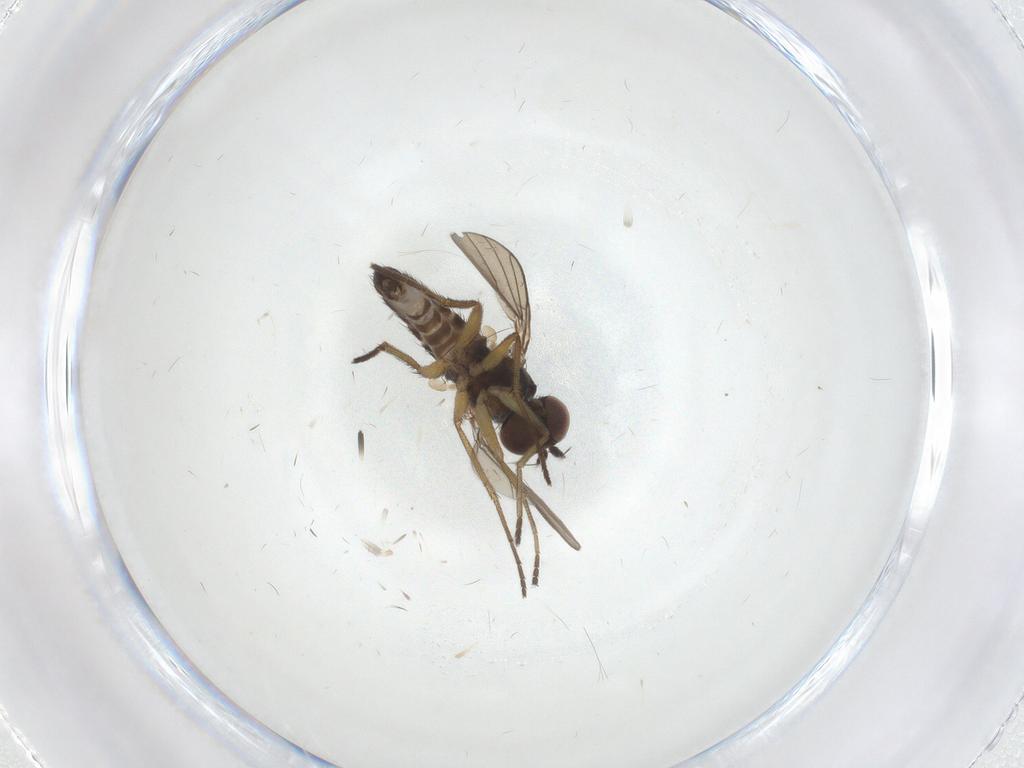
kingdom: Animalia
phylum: Arthropoda
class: Insecta
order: Diptera
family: Dolichopodidae
